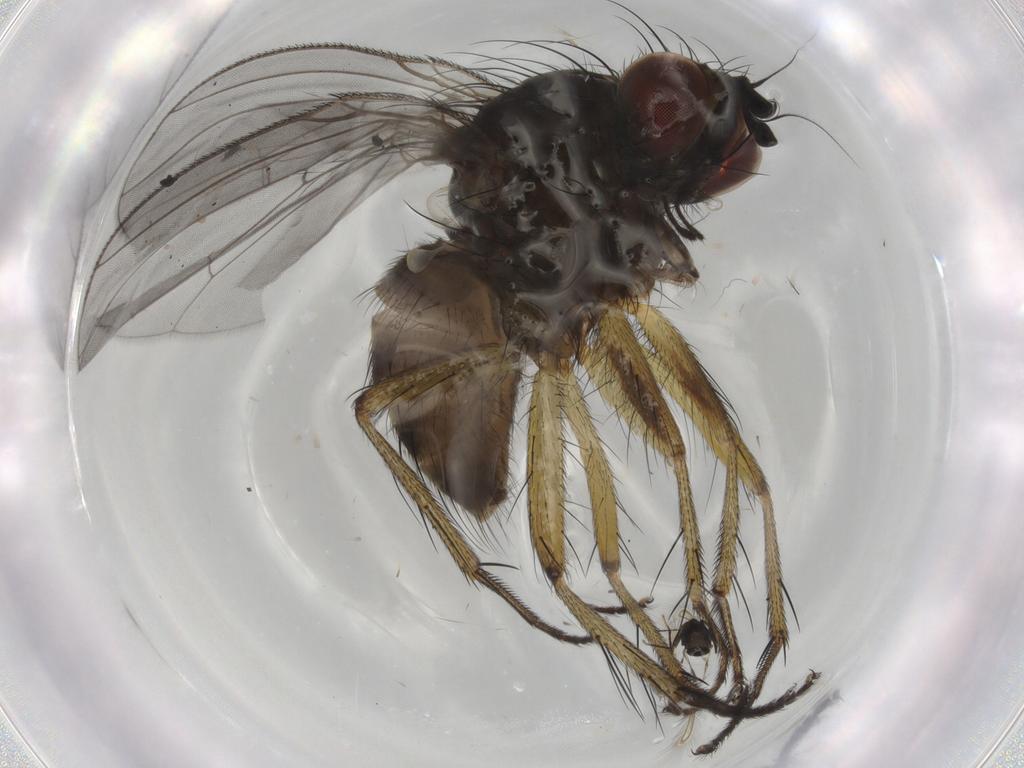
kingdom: Animalia
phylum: Arthropoda
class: Insecta
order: Diptera
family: Muscidae
